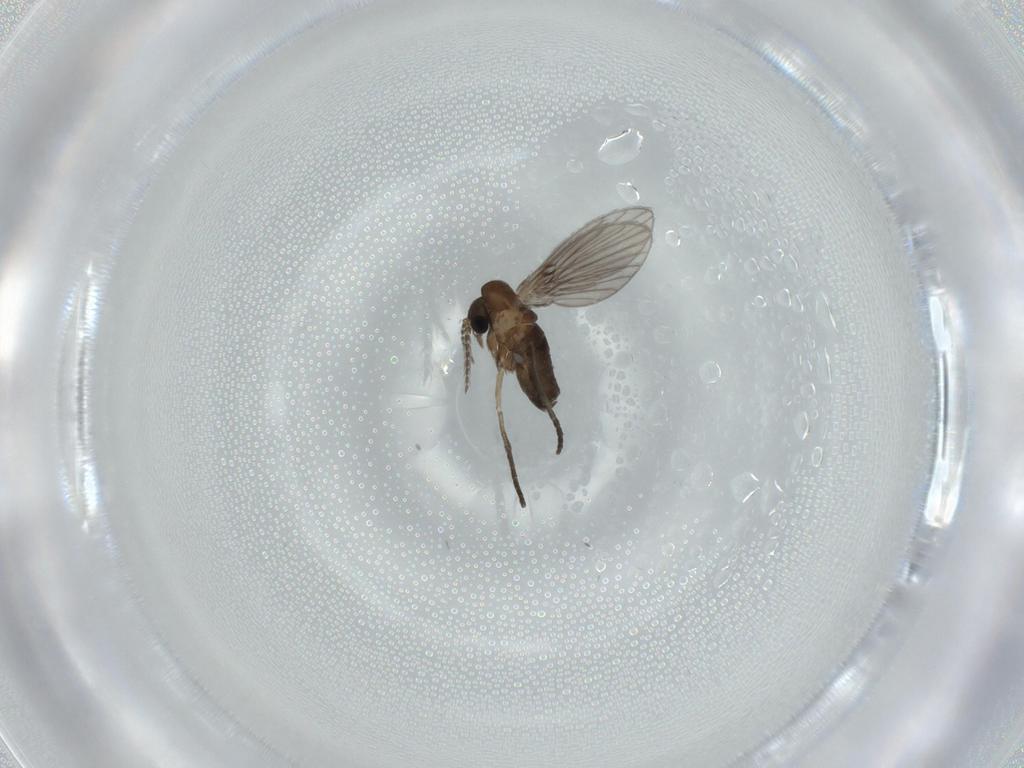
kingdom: Animalia
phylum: Arthropoda
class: Insecta
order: Diptera
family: Limoniidae
